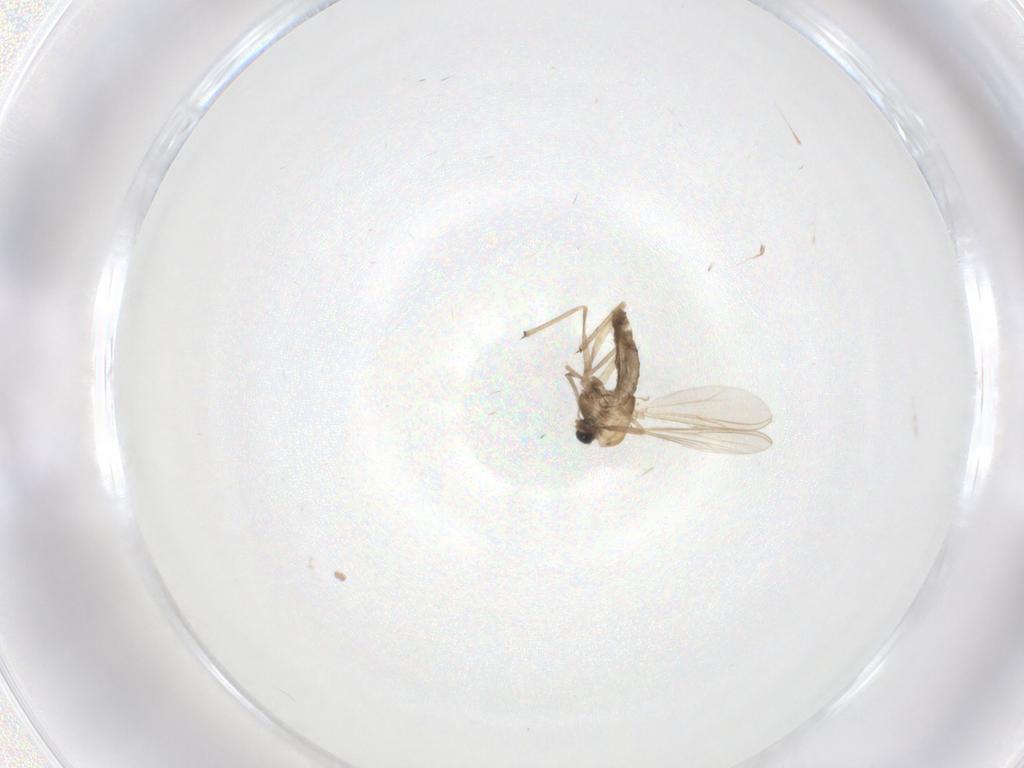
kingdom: Animalia
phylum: Arthropoda
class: Insecta
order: Diptera
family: Chironomidae
